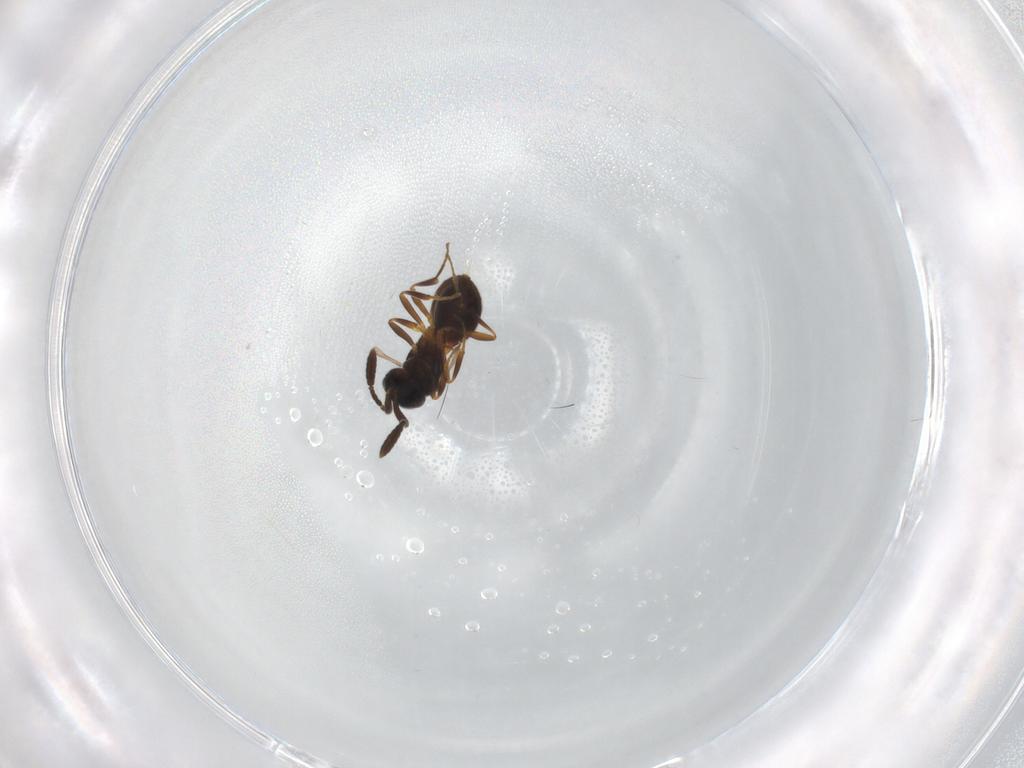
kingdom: Animalia
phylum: Arthropoda
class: Insecta
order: Hymenoptera
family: Scelionidae
